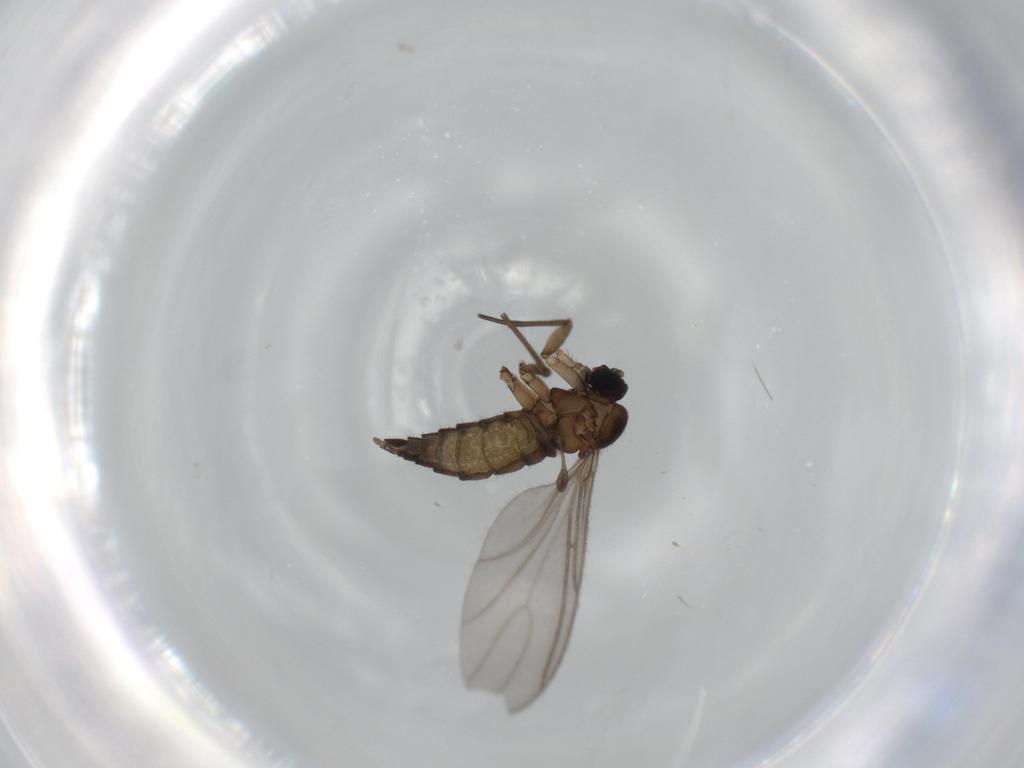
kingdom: Animalia
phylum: Arthropoda
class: Insecta
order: Diptera
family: Sciaridae
